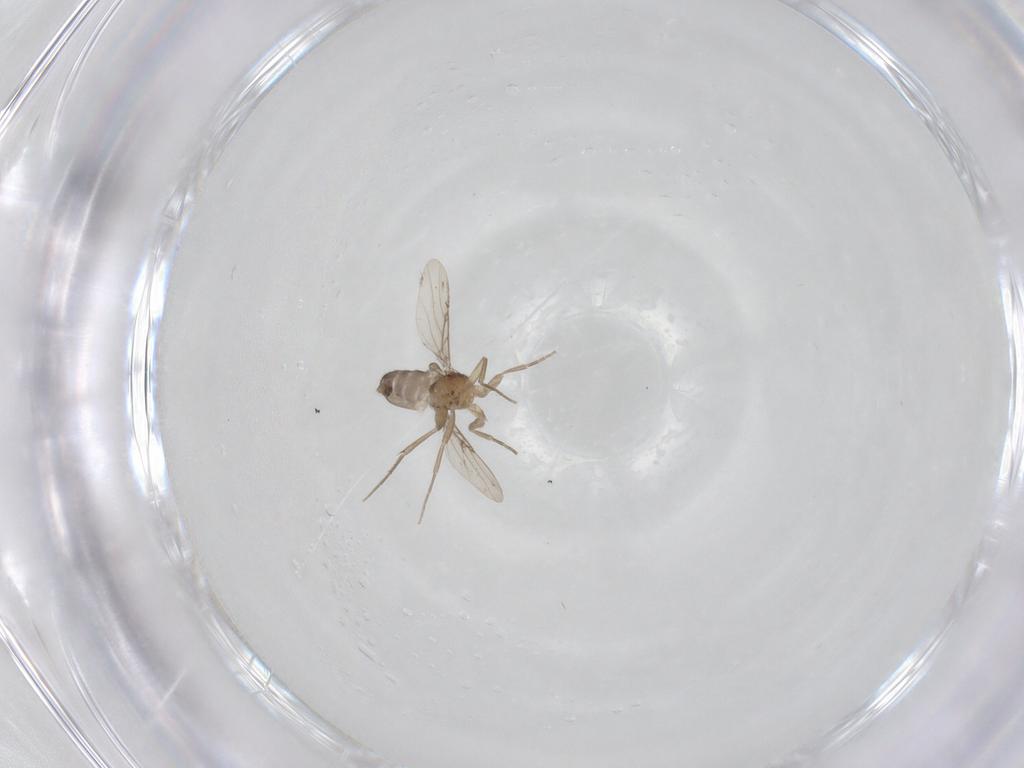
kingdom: Animalia
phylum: Arthropoda
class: Insecta
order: Diptera
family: Phoridae
